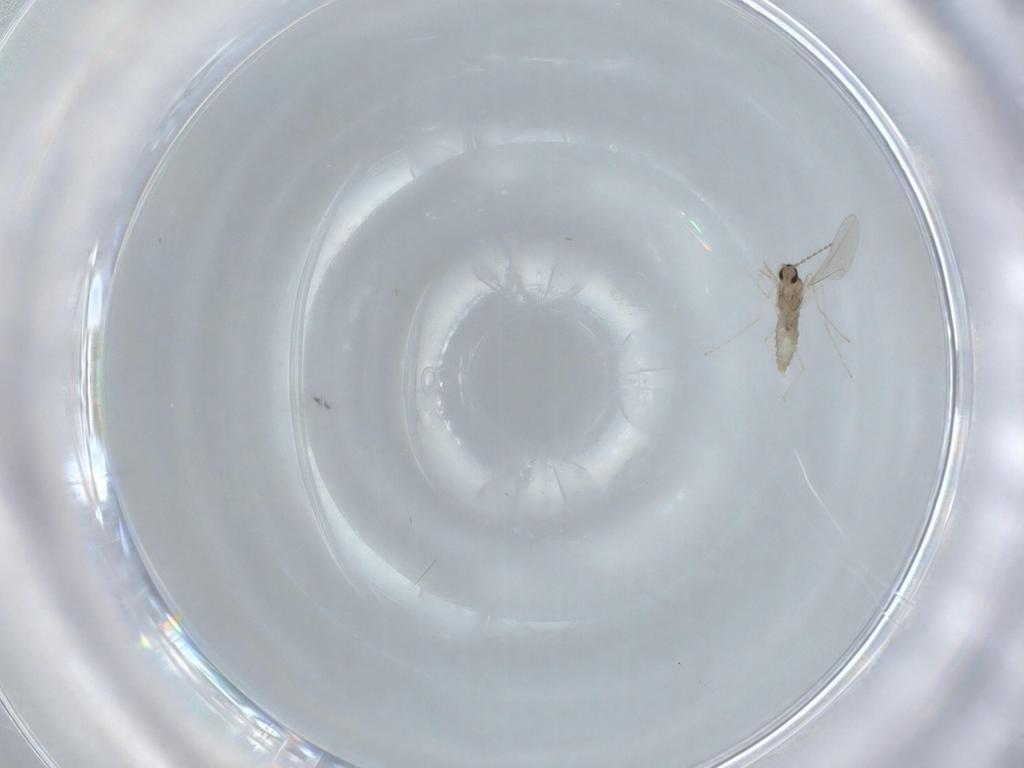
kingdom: Animalia
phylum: Arthropoda
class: Insecta
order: Diptera
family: Cecidomyiidae
